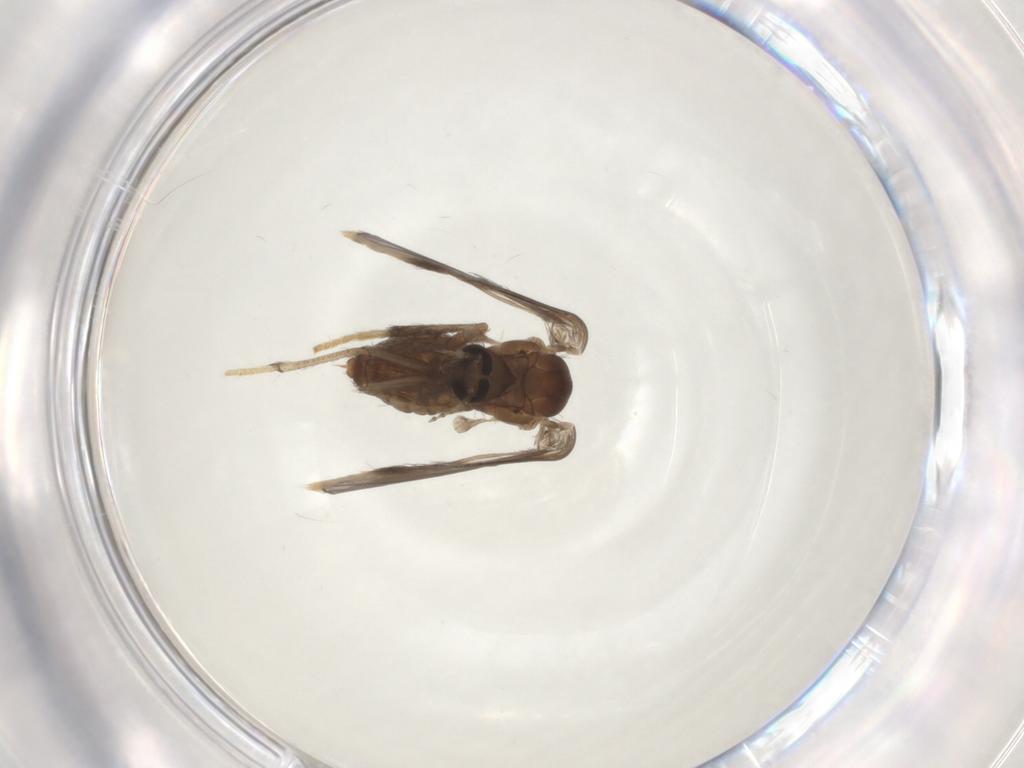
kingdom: Animalia
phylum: Arthropoda
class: Insecta
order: Diptera
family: Psychodidae
